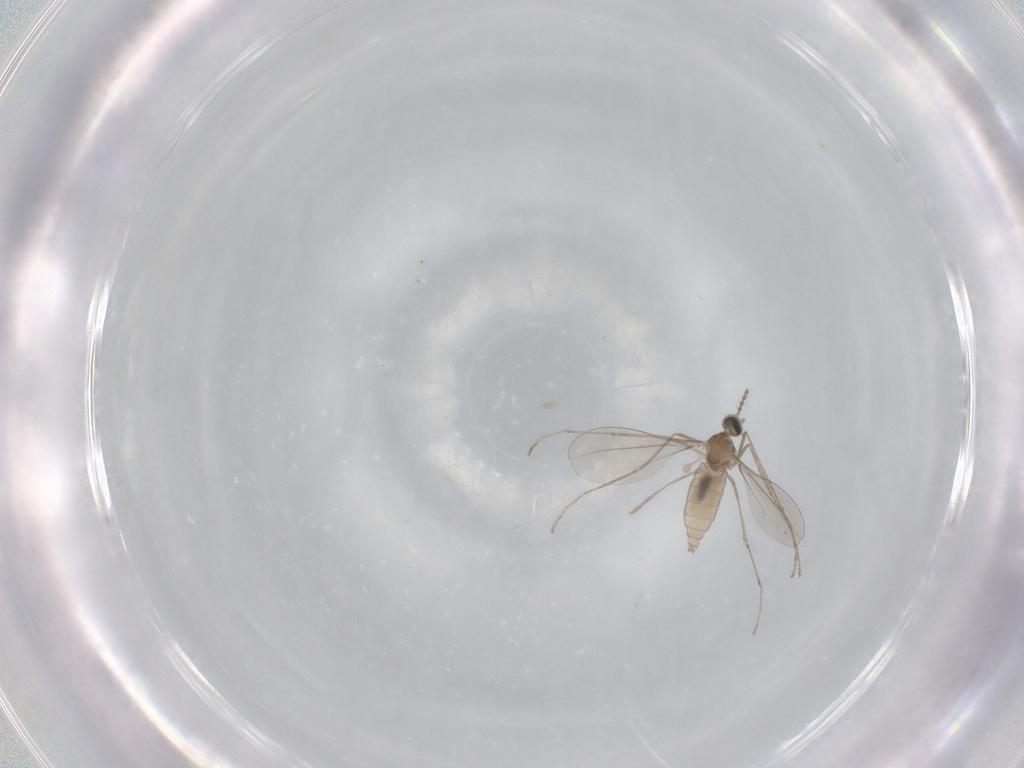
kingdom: Animalia
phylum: Arthropoda
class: Insecta
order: Diptera
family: Cecidomyiidae
